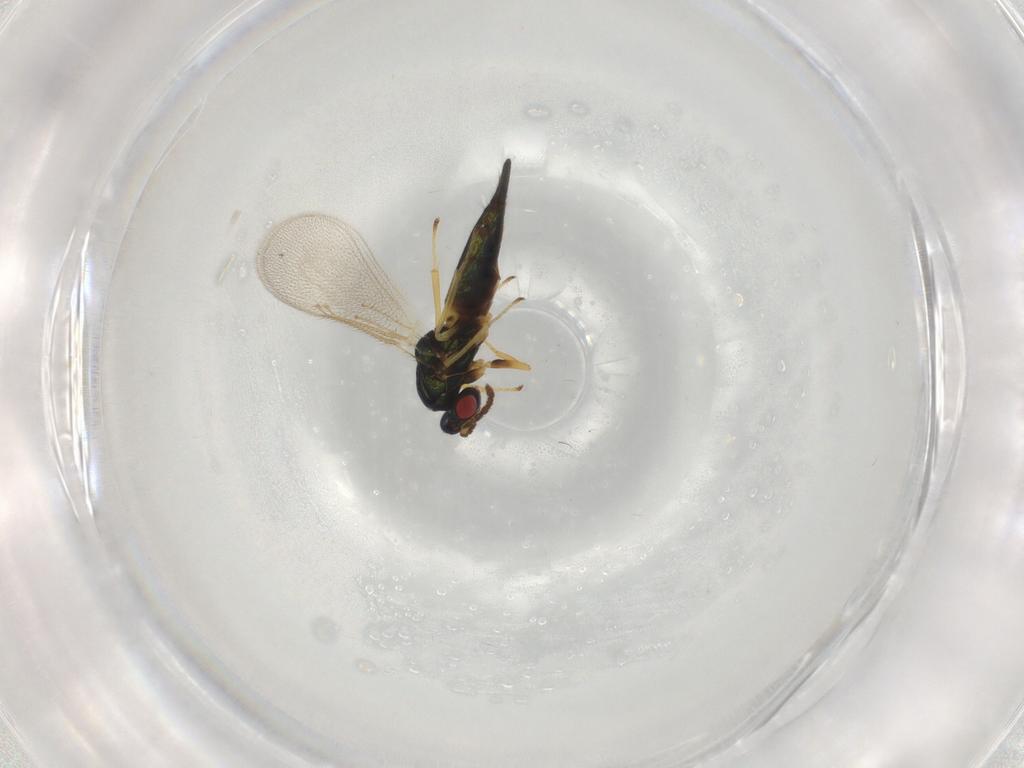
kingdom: Animalia
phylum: Arthropoda
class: Insecta
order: Hymenoptera
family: Eulophidae
